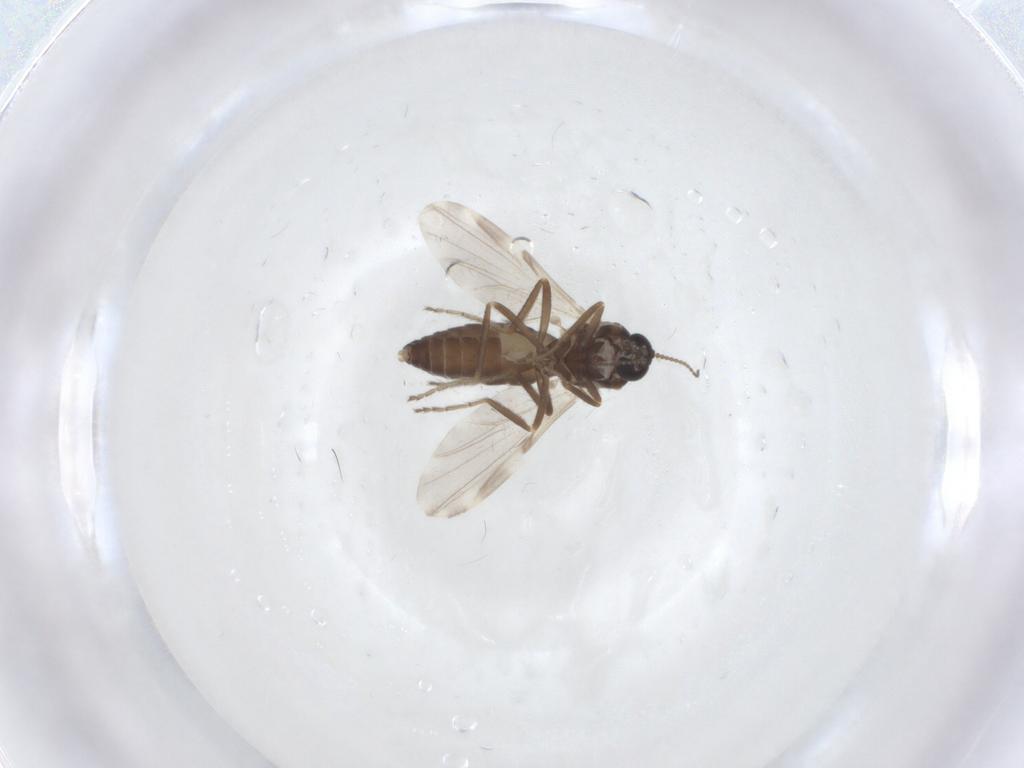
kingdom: Animalia
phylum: Arthropoda
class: Insecta
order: Diptera
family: Ceratopogonidae
